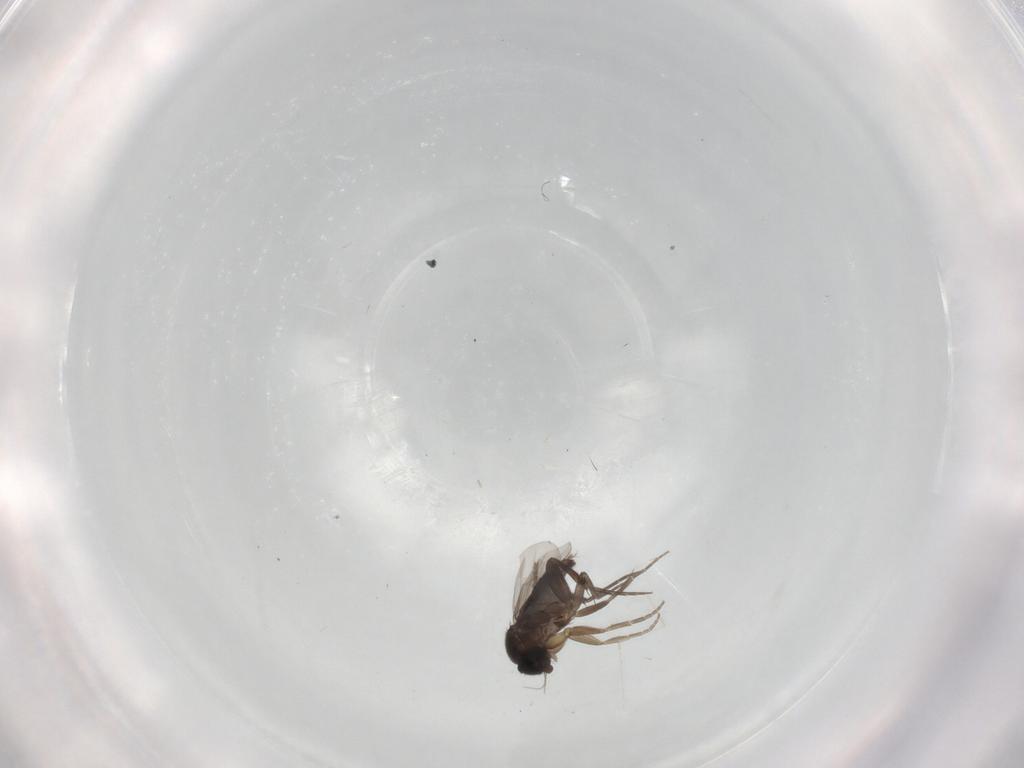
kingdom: Animalia
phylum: Arthropoda
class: Insecta
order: Diptera
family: Cecidomyiidae
